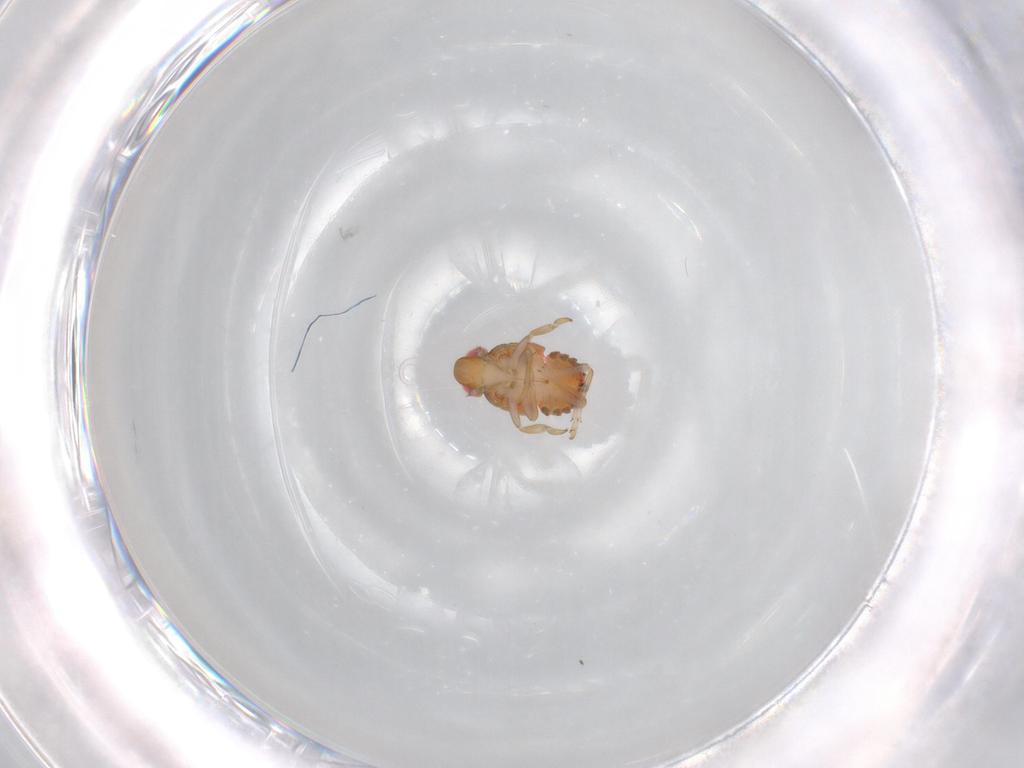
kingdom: Animalia
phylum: Arthropoda
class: Insecta
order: Hemiptera
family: Issidae
